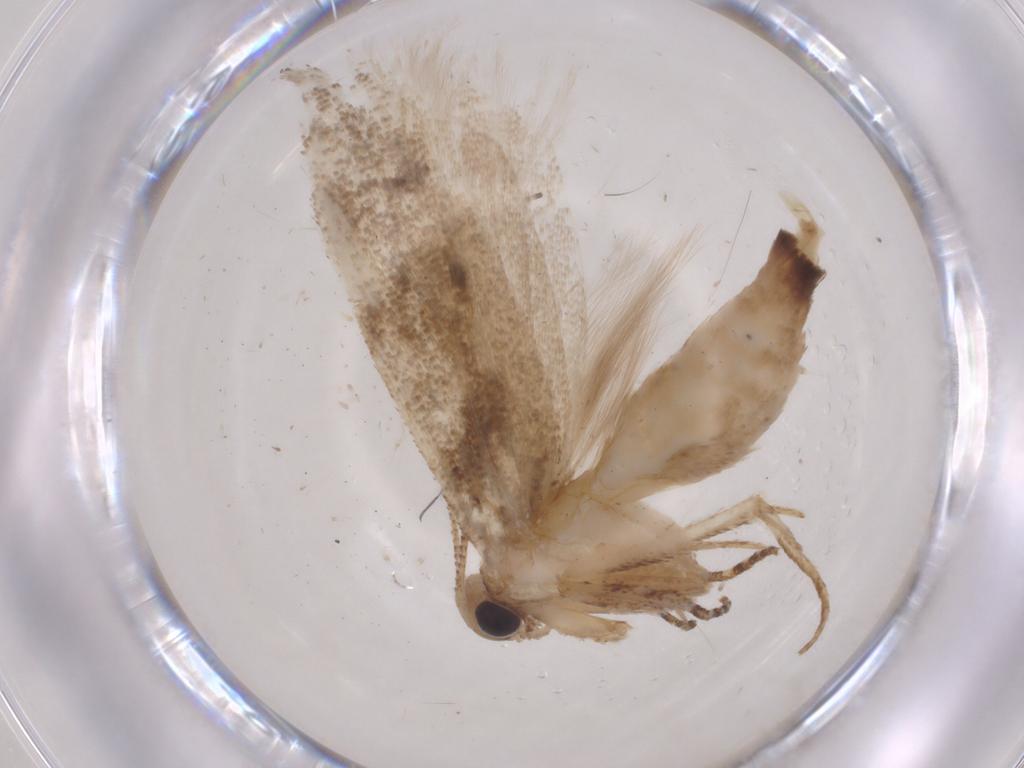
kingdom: Animalia
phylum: Arthropoda
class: Insecta
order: Lepidoptera
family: Gelechiidae
